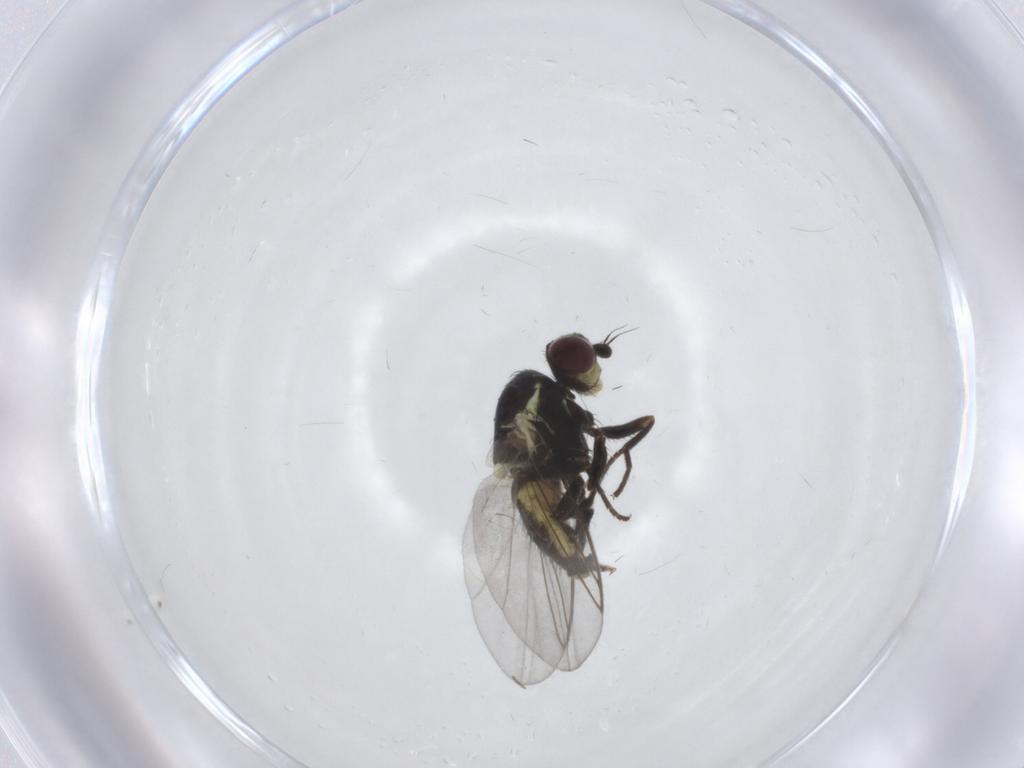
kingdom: Animalia
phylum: Arthropoda
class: Insecta
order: Diptera
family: Agromyzidae
